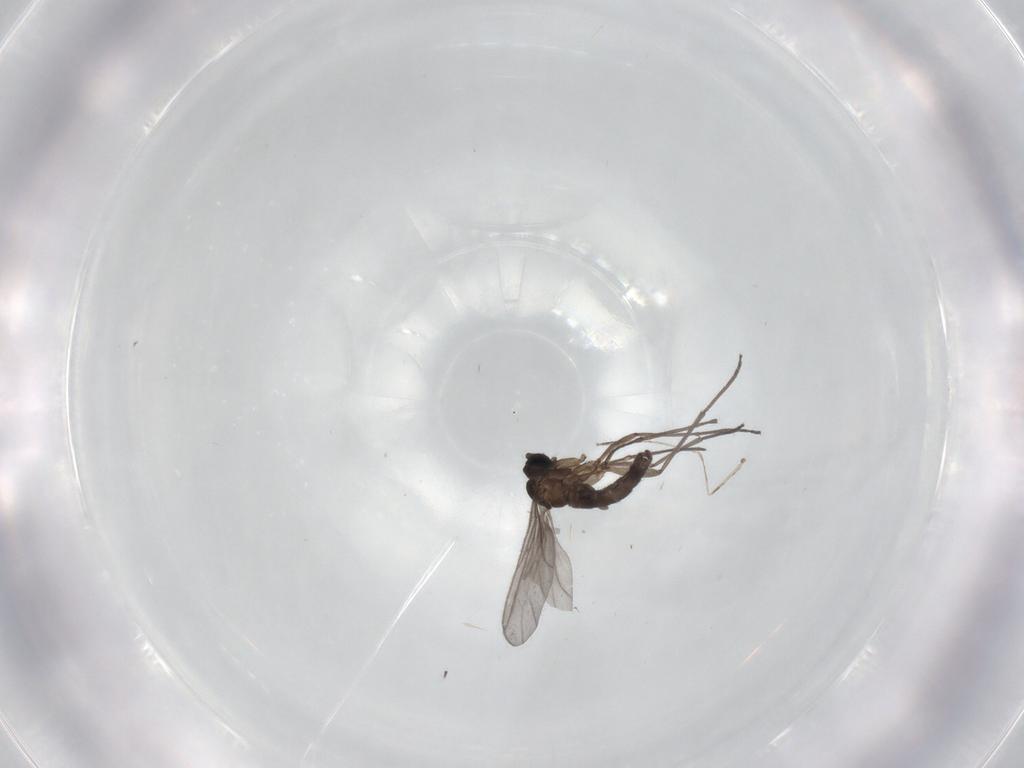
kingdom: Animalia
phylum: Arthropoda
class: Insecta
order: Diptera
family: Sciaridae
